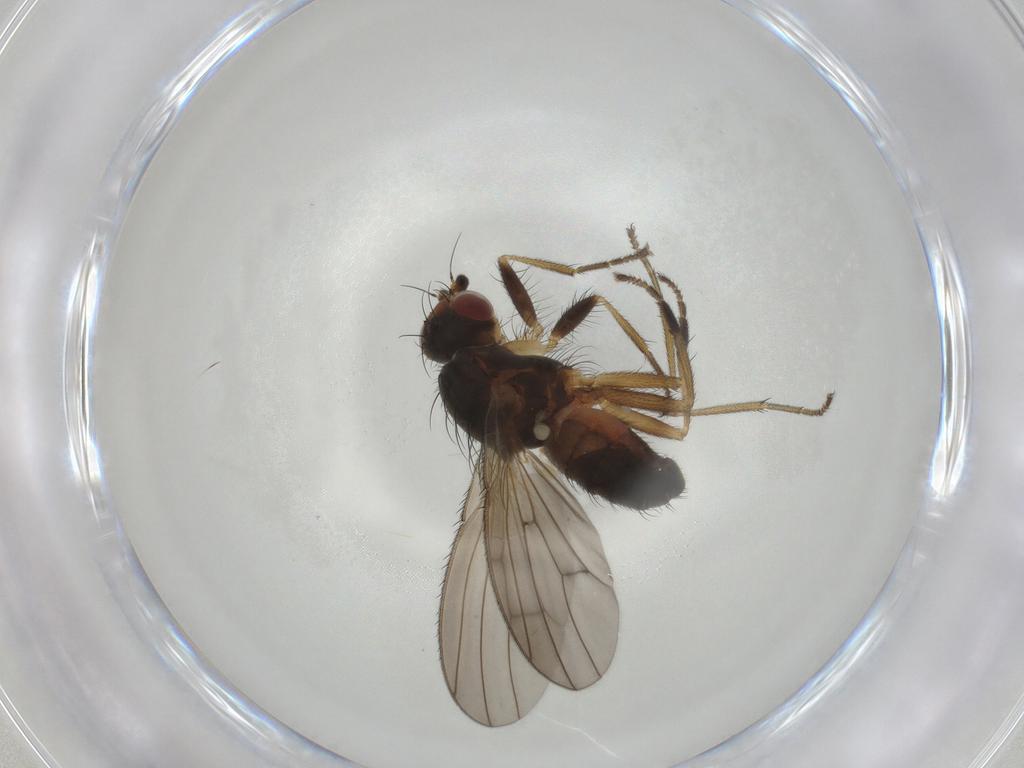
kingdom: Animalia
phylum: Arthropoda
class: Insecta
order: Diptera
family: Heleomyzidae
